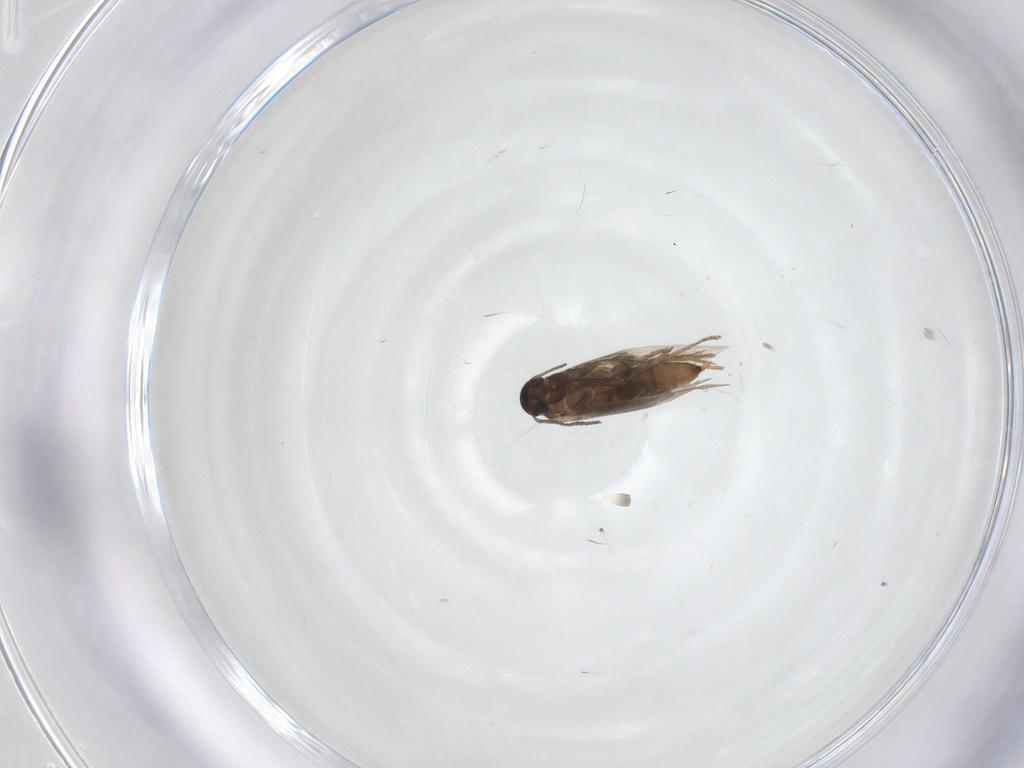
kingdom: Animalia
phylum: Arthropoda
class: Insecta
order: Lepidoptera
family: Heliozelidae
